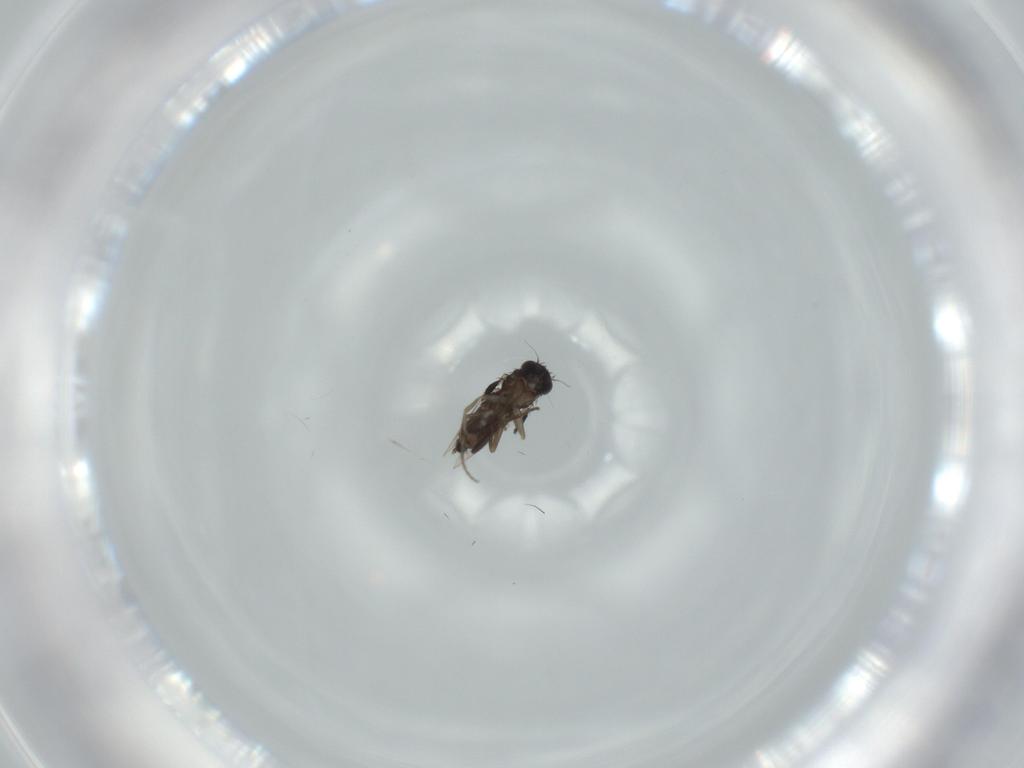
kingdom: Animalia
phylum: Arthropoda
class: Insecta
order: Diptera
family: Phoridae
